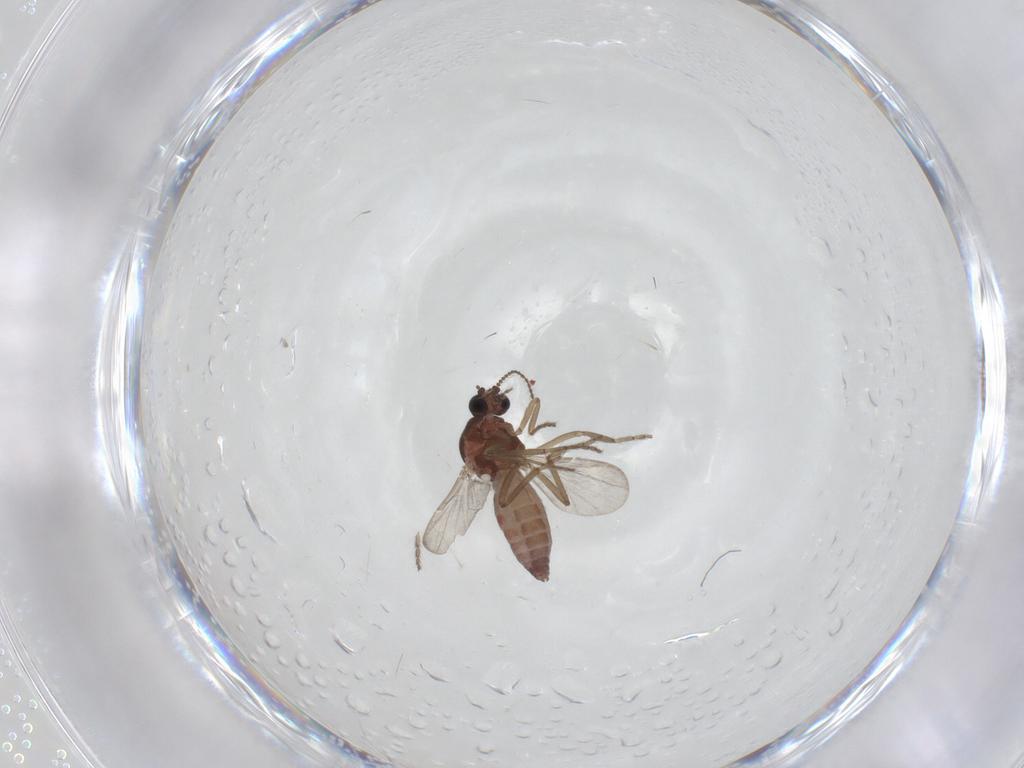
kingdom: Animalia
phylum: Arthropoda
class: Insecta
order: Diptera
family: Ceratopogonidae
